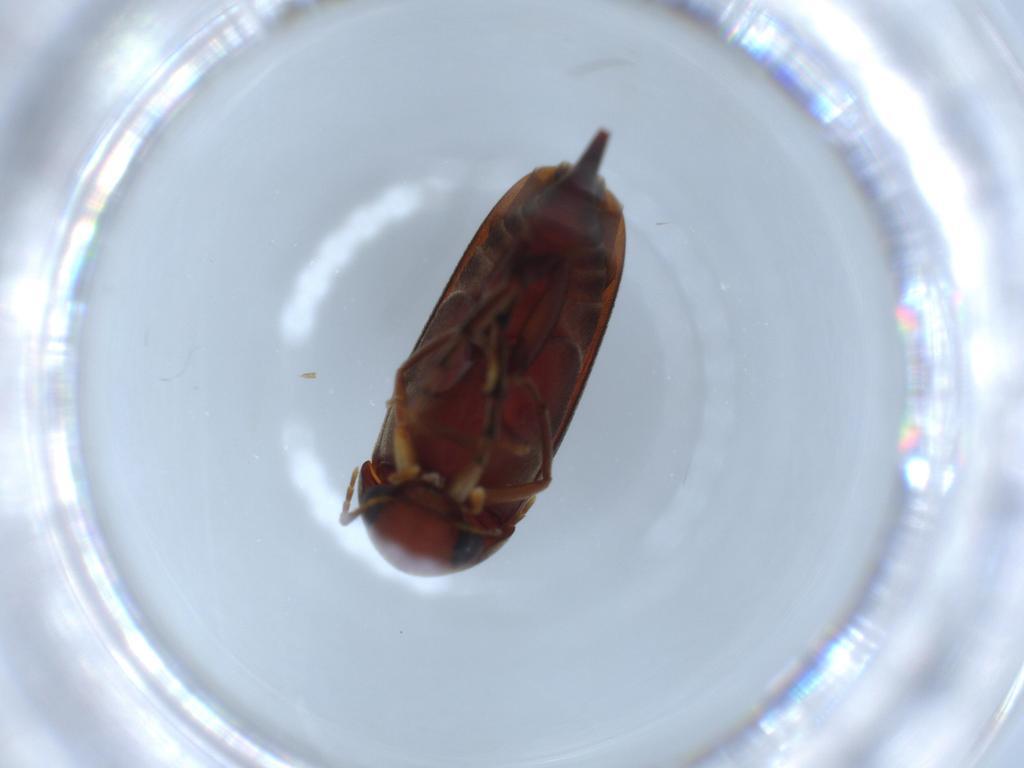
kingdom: Animalia
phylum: Arthropoda
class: Insecta
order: Coleoptera
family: Mordellidae
